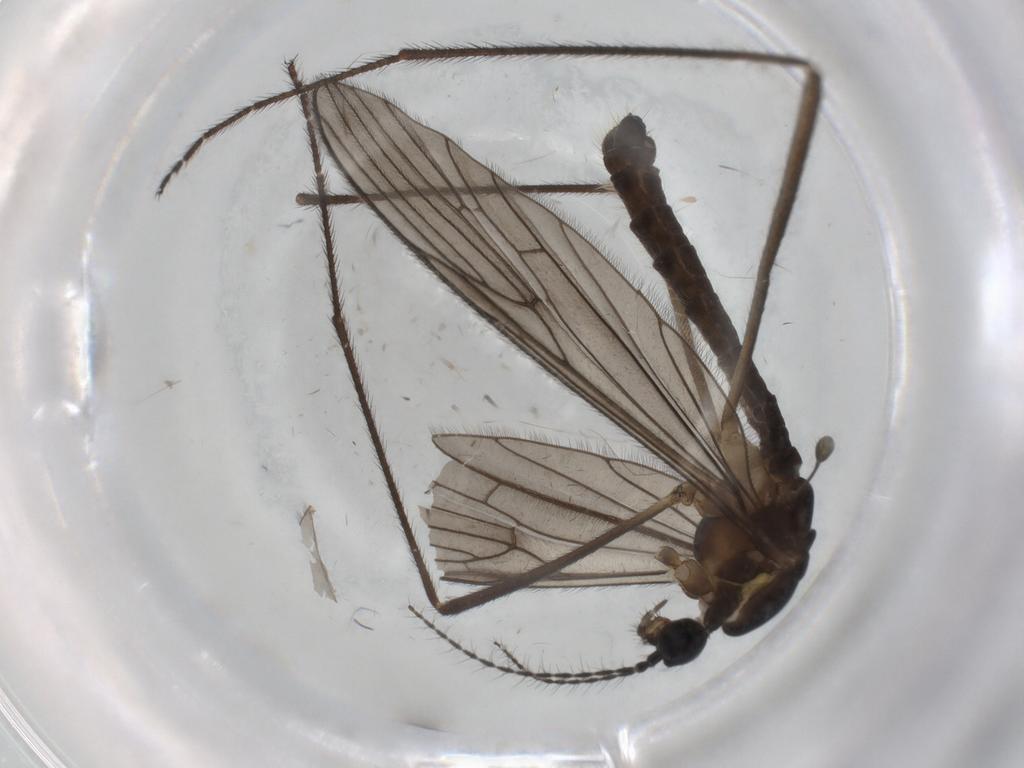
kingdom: Animalia
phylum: Arthropoda
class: Insecta
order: Diptera
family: Limoniidae
